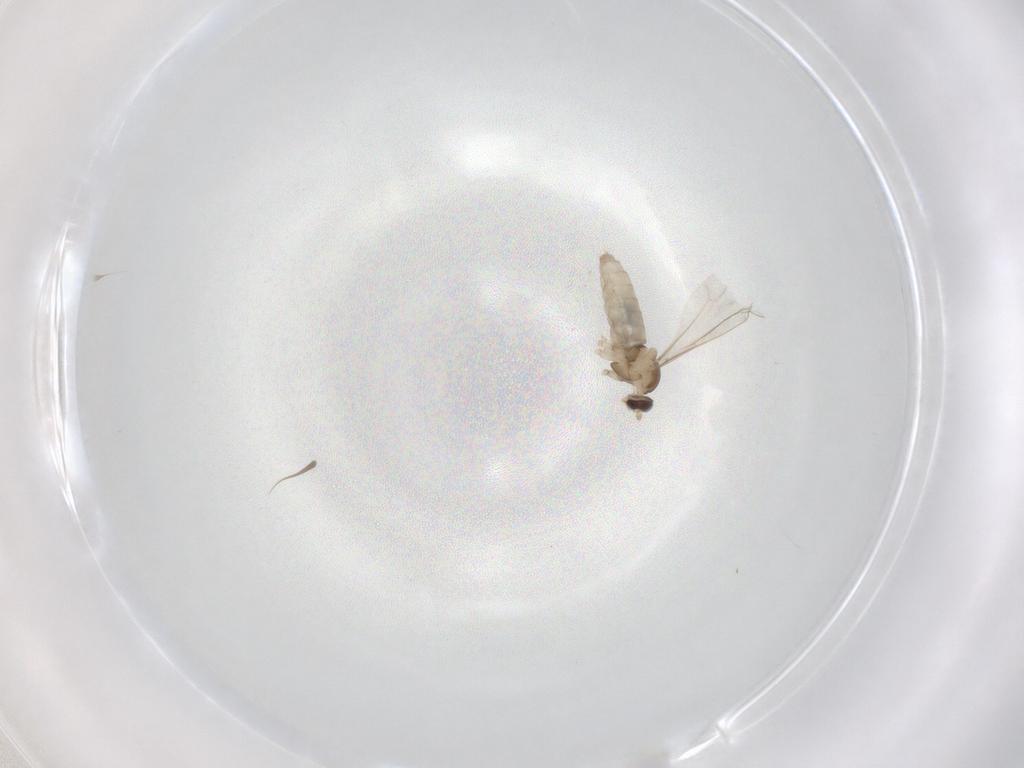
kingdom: Animalia
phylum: Arthropoda
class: Insecta
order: Diptera
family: Cecidomyiidae
